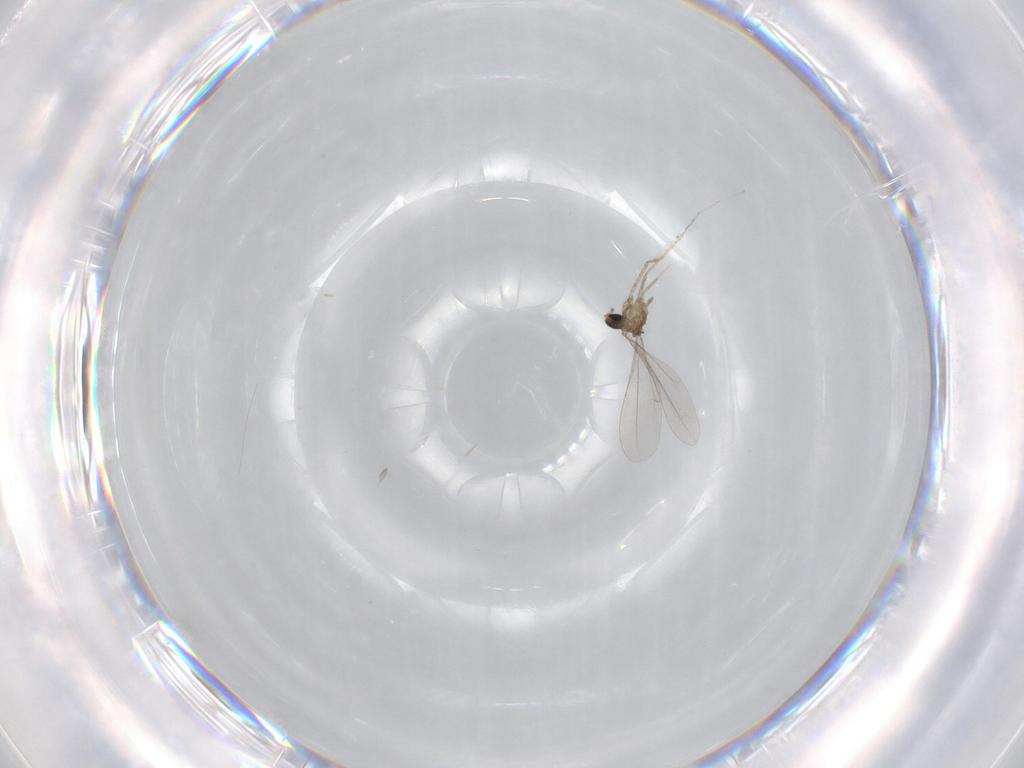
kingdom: Animalia
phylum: Arthropoda
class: Insecta
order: Diptera
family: Cecidomyiidae
